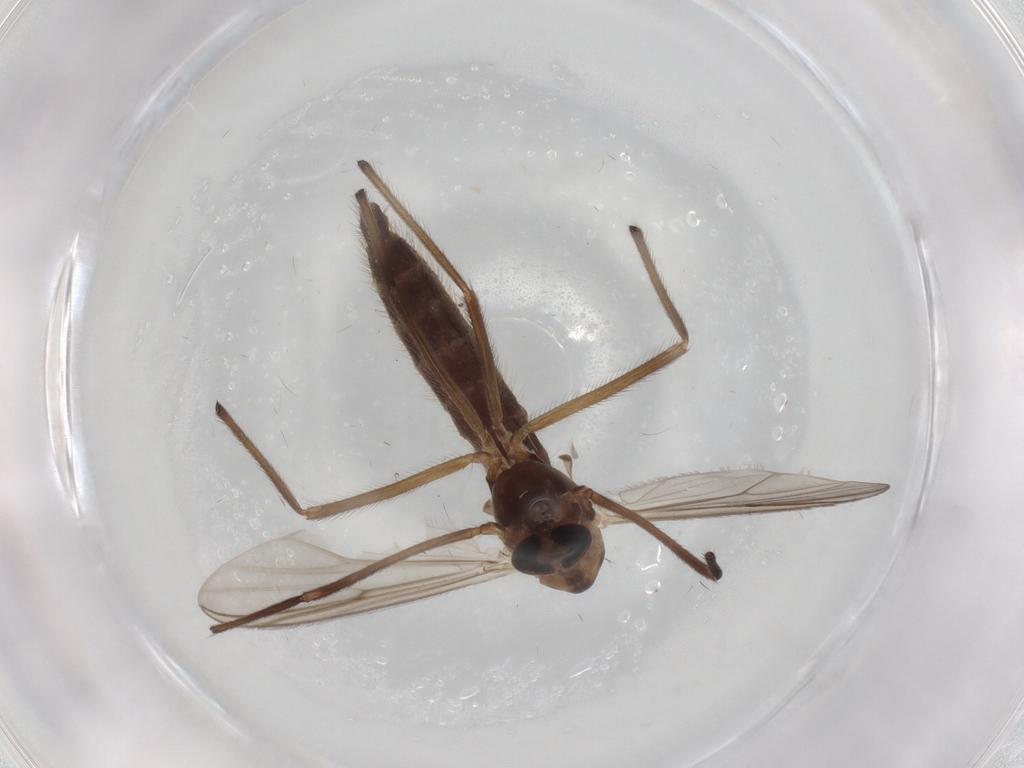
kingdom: Animalia
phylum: Arthropoda
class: Insecta
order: Diptera
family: Chironomidae
